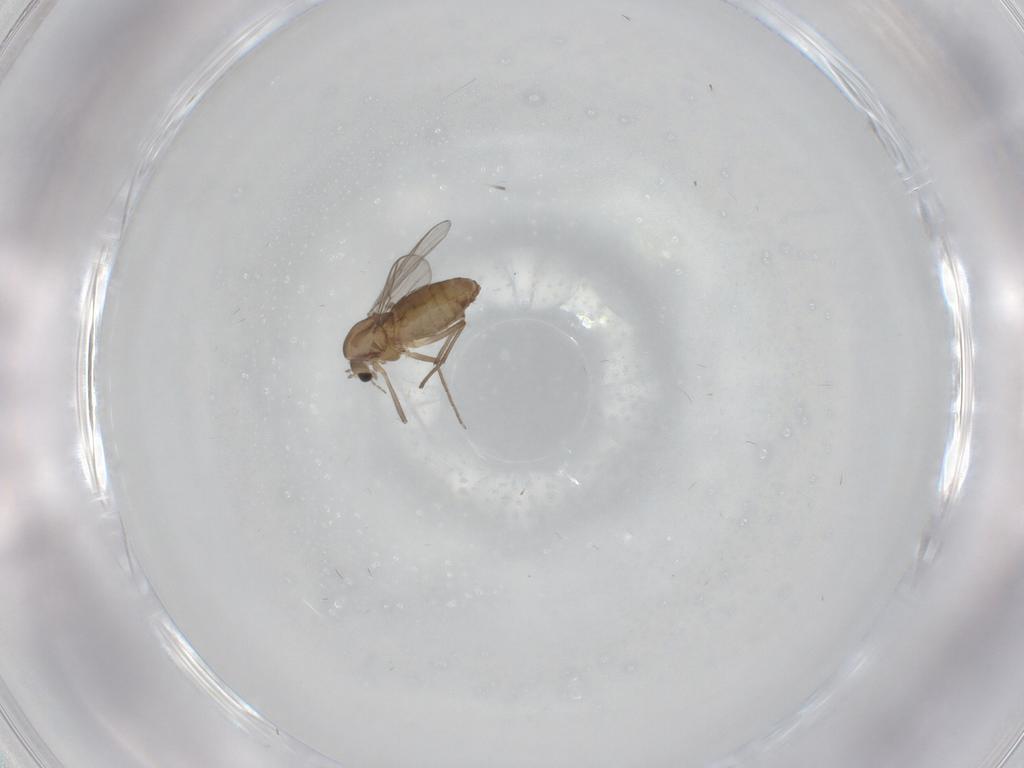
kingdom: Animalia
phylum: Arthropoda
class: Insecta
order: Diptera
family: Chironomidae
